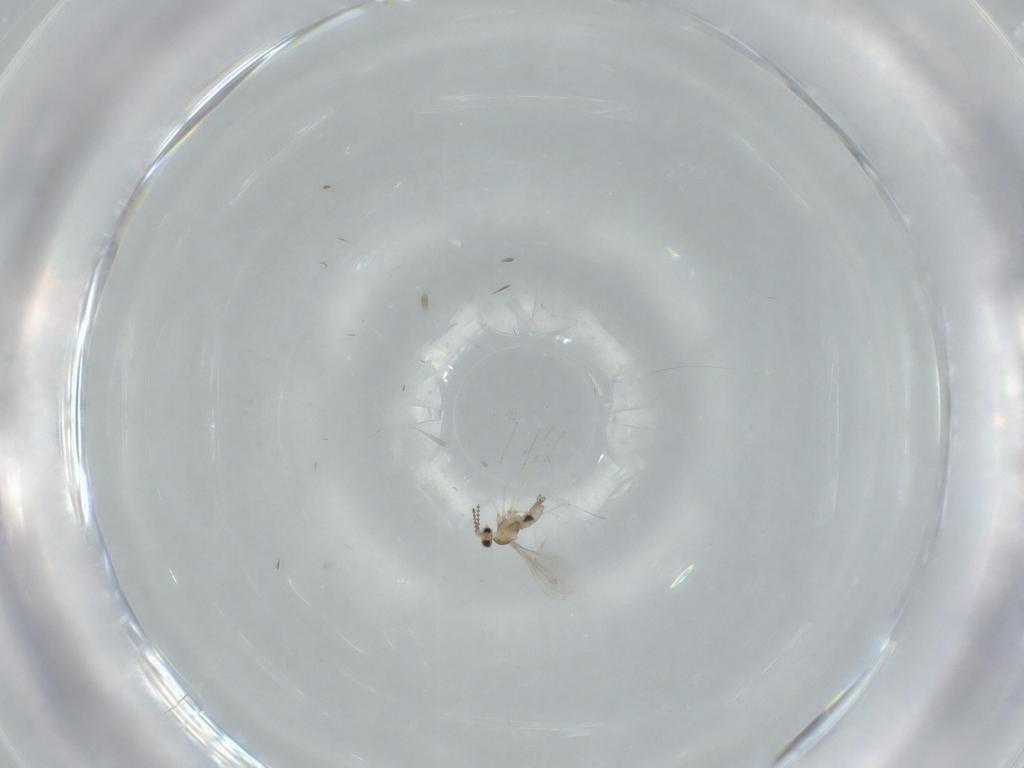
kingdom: Animalia
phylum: Arthropoda
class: Insecta
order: Diptera
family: Cecidomyiidae
